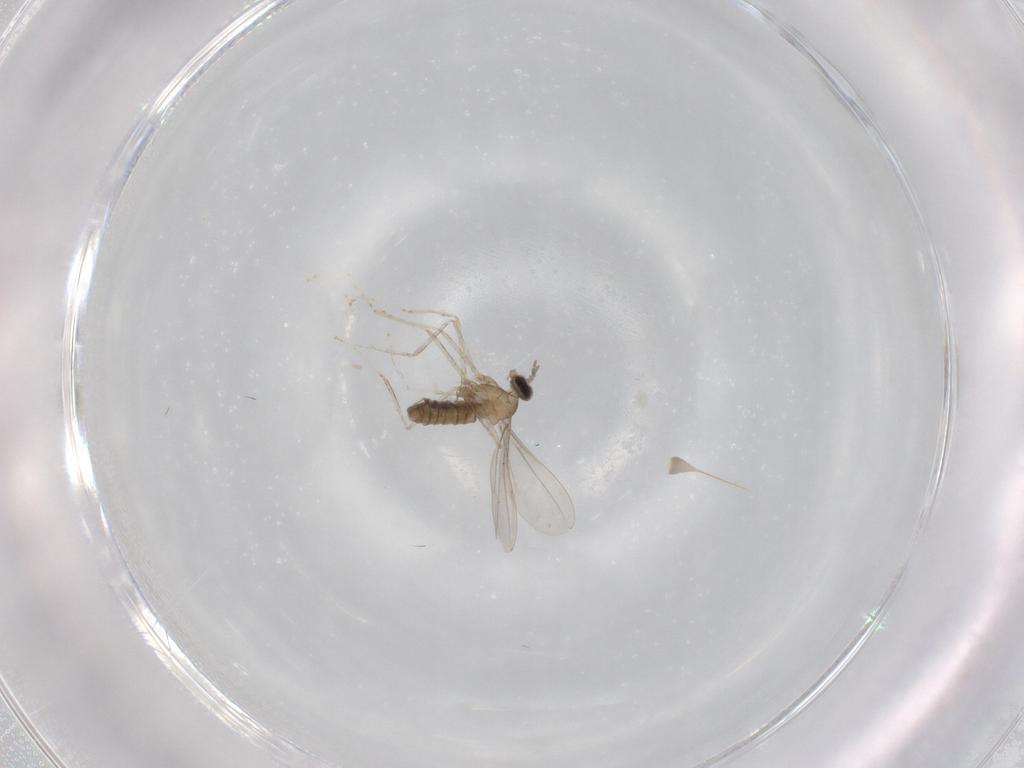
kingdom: Animalia
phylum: Arthropoda
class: Insecta
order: Diptera
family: Cecidomyiidae
